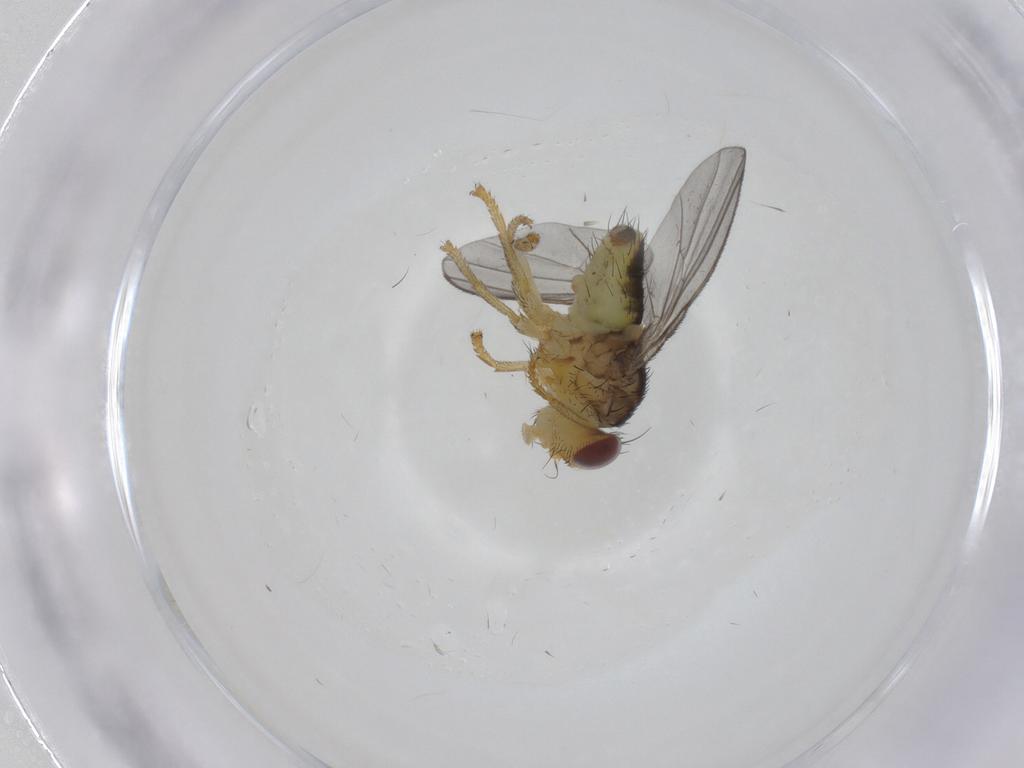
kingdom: Animalia
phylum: Arthropoda
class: Insecta
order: Diptera
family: Fergusoninidae
